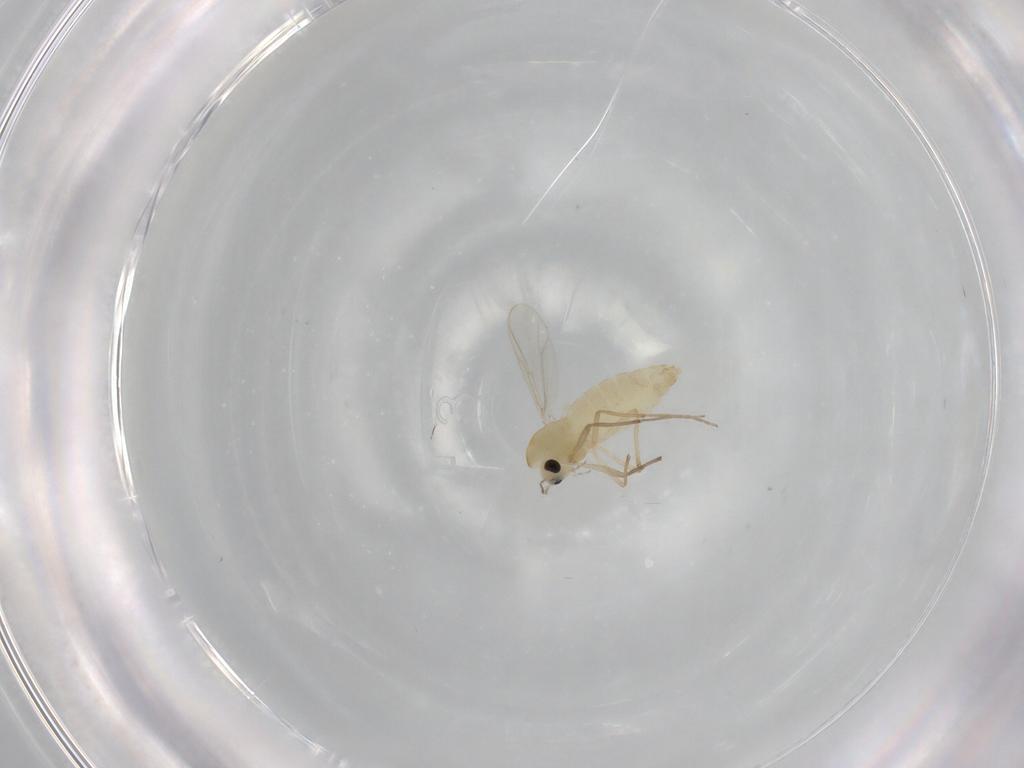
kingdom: Animalia
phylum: Arthropoda
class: Insecta
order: Diptera
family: Chironomidae
